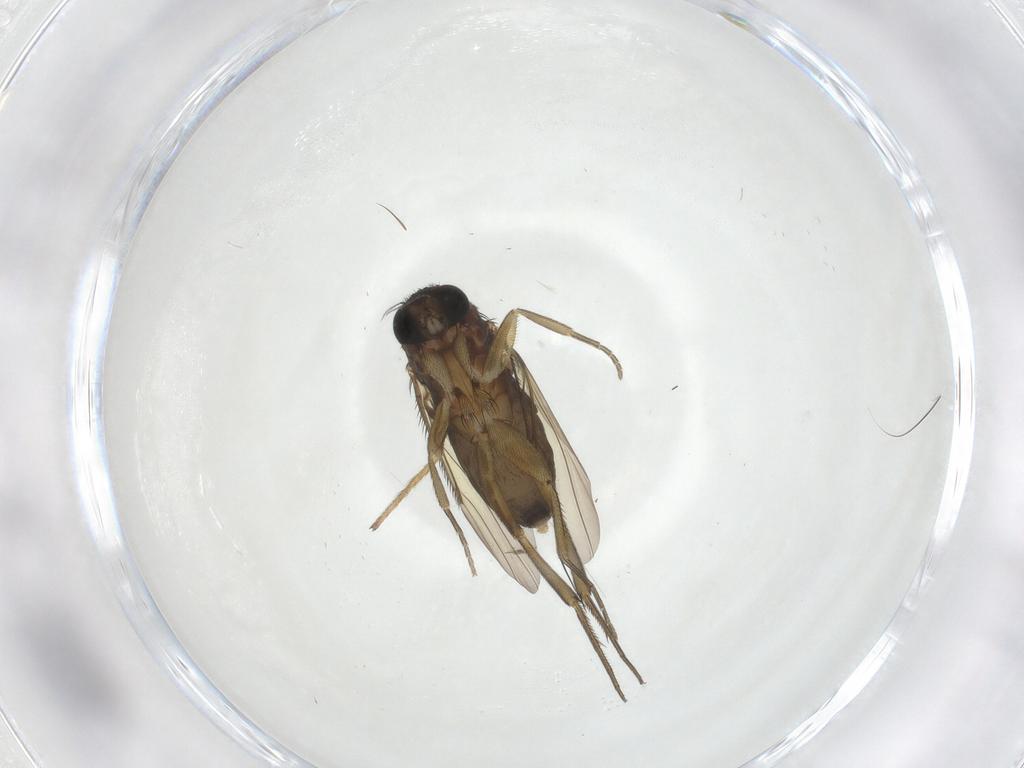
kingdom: Animalia
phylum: Arthropoda
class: Insecta
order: Diptera
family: Phoridae
